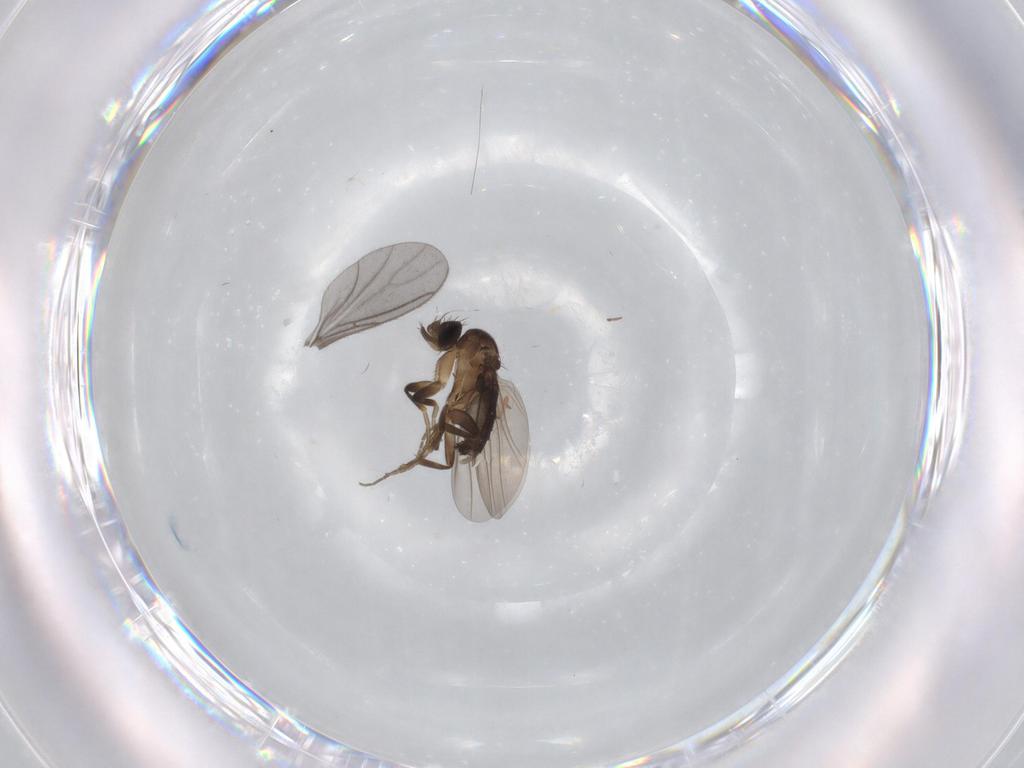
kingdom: Animalia
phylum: Arthropoda
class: Insecta
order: Diptera
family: Phoridae
